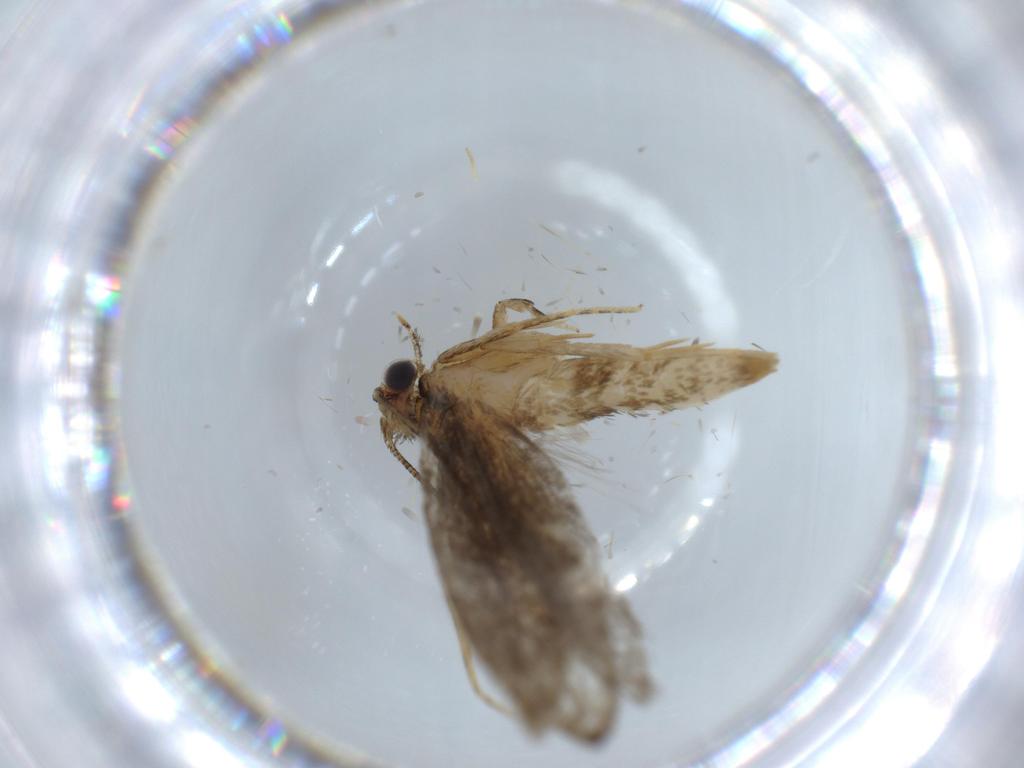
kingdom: Animalia
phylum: Arthropoda
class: Insecta
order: Lepidoptera
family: Tineidae
